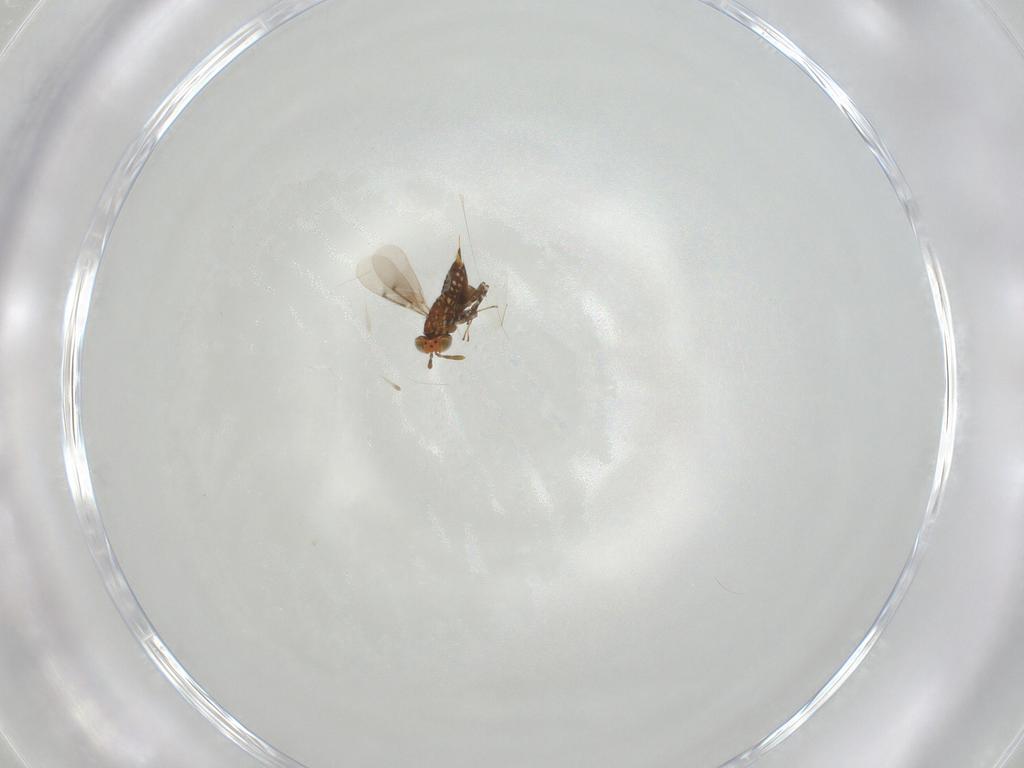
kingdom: Animalia
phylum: Arthropoda
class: Insecta
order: Hymenoptera
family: Aphelinidae
